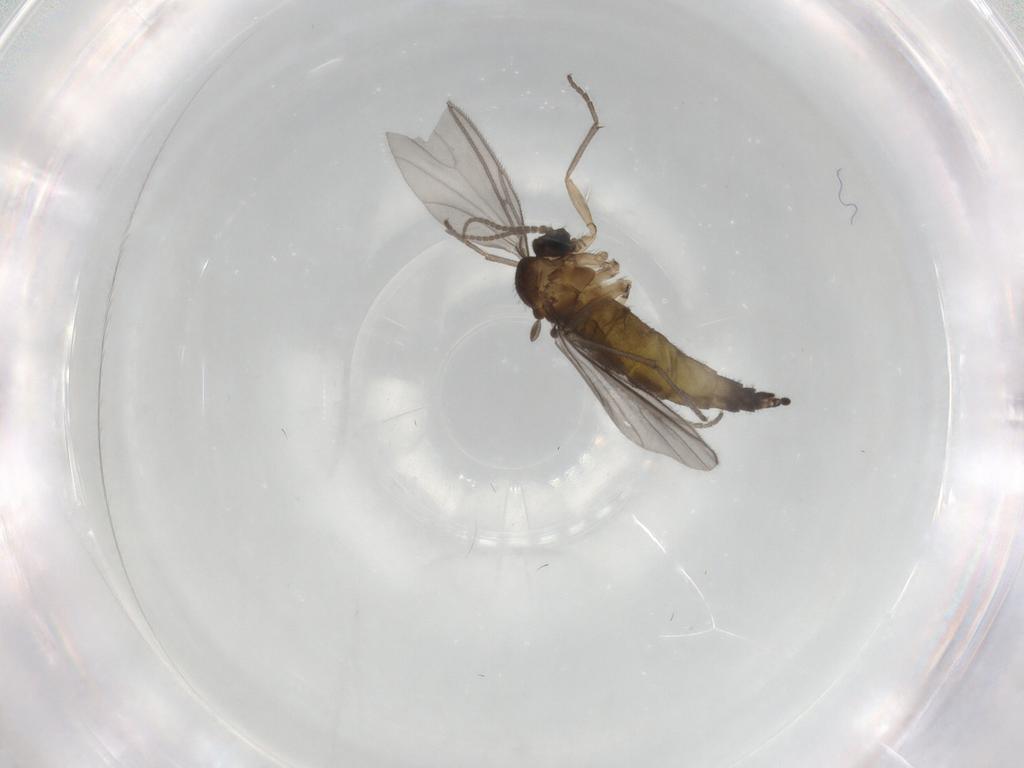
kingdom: Animalia
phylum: Arthropoda
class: Insecta
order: Diptera
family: Sciaridae
